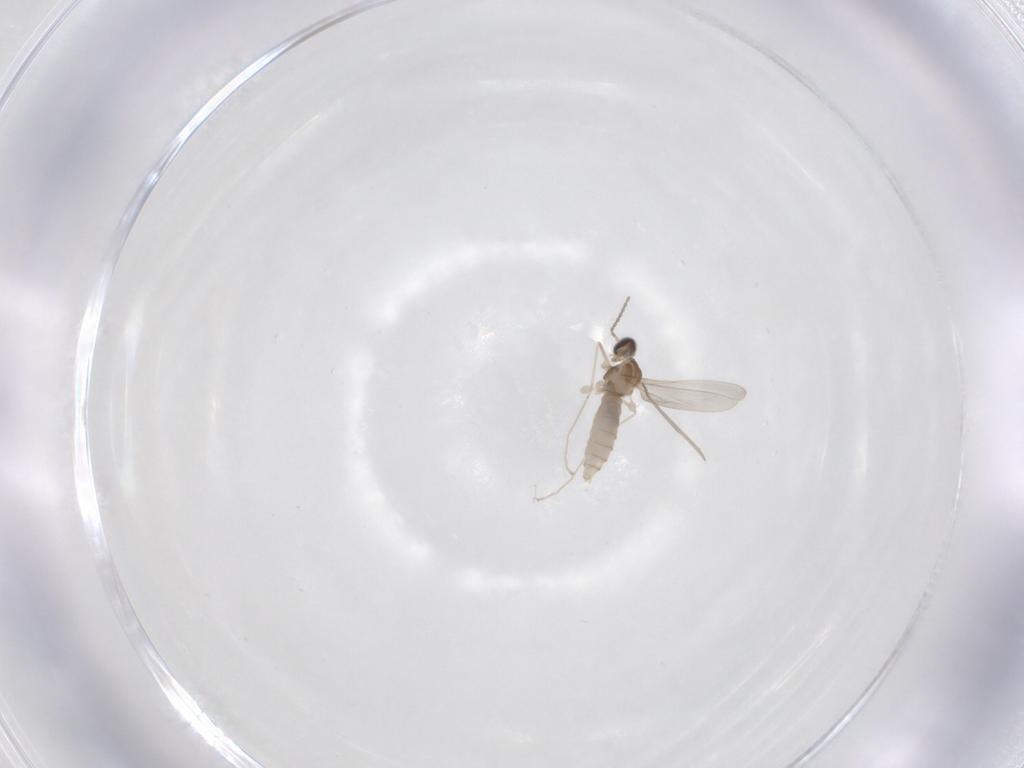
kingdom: Animalia
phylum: Arthropoda
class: Insecta
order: Diptera
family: Cecidomyiidae
